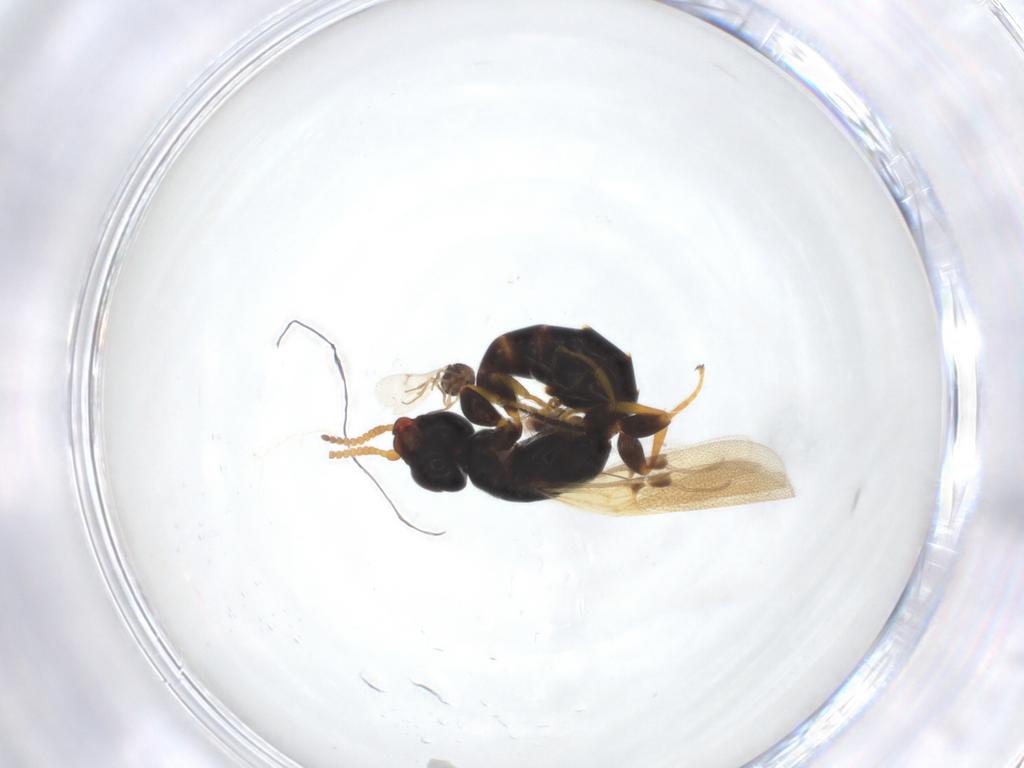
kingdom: Animalia
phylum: Arthropoda
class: Insecta
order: Hymenoptera
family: Bethylidae
